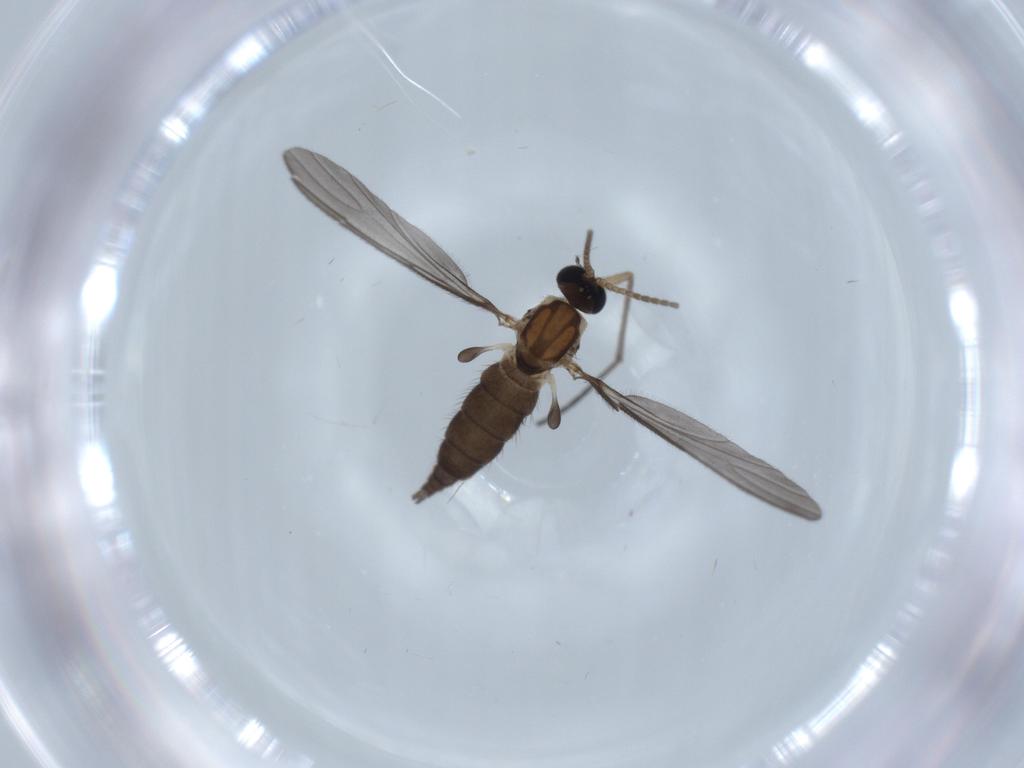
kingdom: Animalia
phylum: Arthropoda
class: Insecta
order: Diptera
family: Sciaridae
